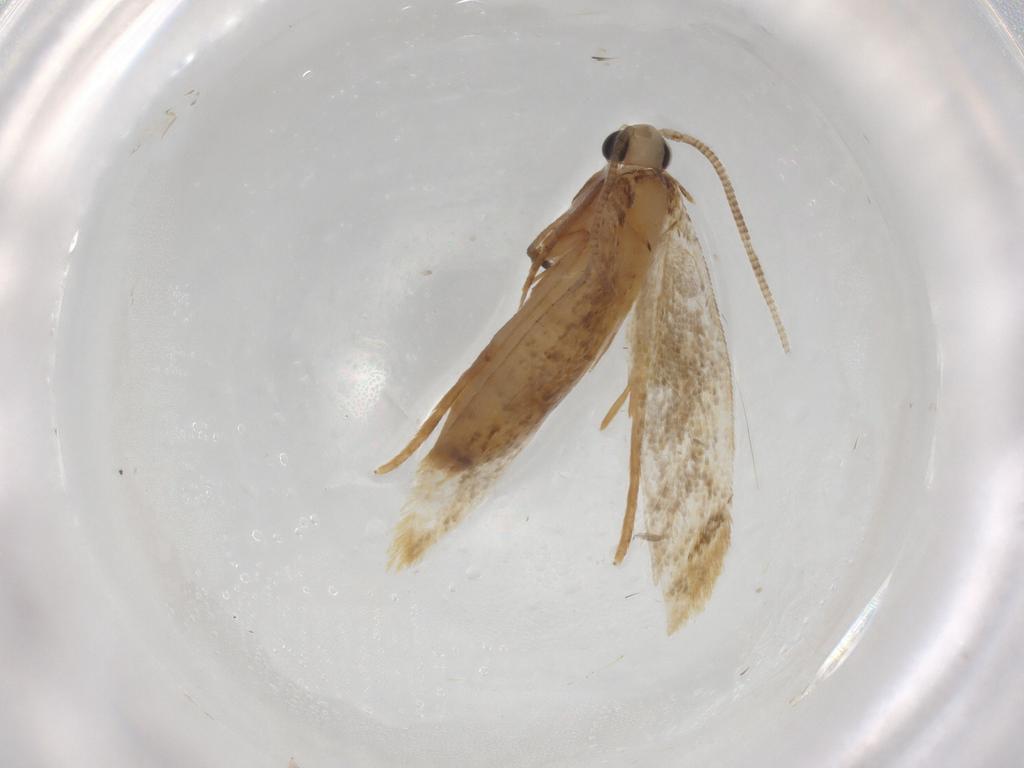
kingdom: Animalia
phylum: Arthropoda
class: Insecta
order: Lepidoptera
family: Tineidae
